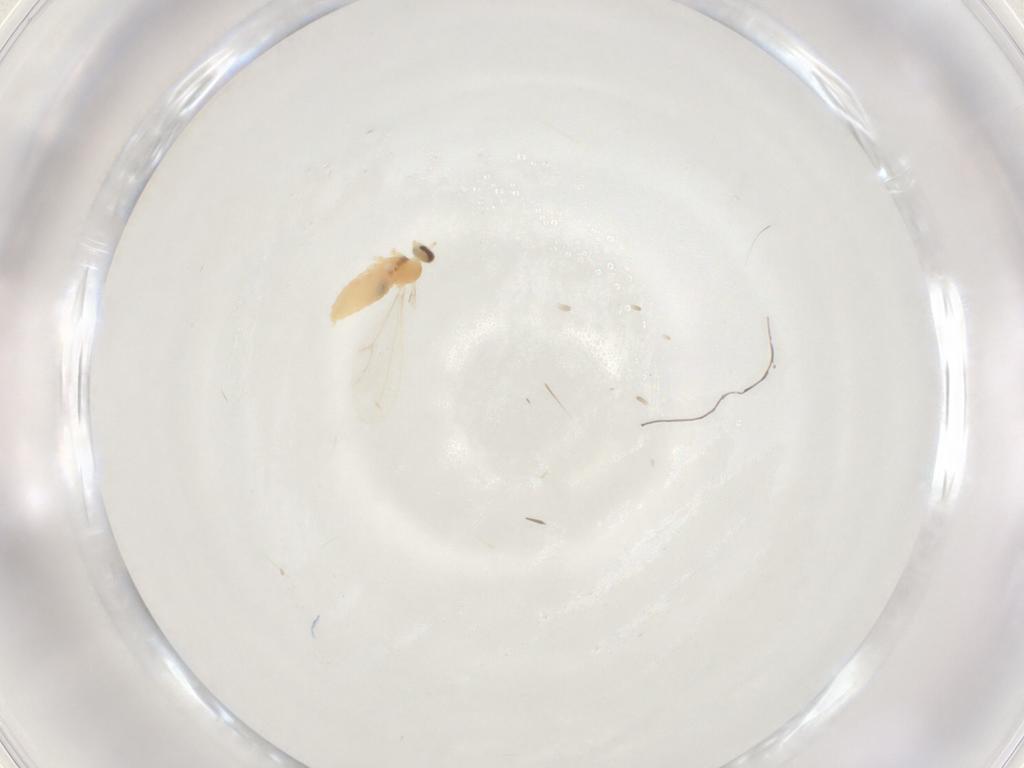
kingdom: Animalia
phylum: Arthropoda
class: Insecta
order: Diptera
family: Cecidomyiidae
